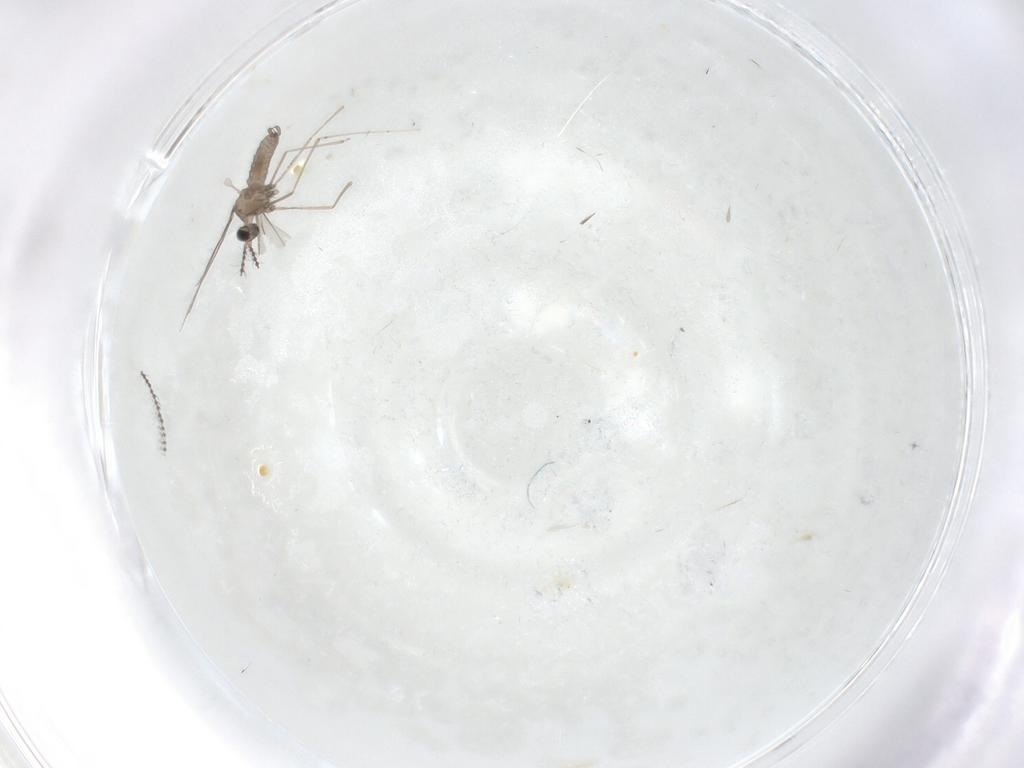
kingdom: Animalia
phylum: Arthropoda
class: Insecta
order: Diptera
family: Cecidomyiidae
